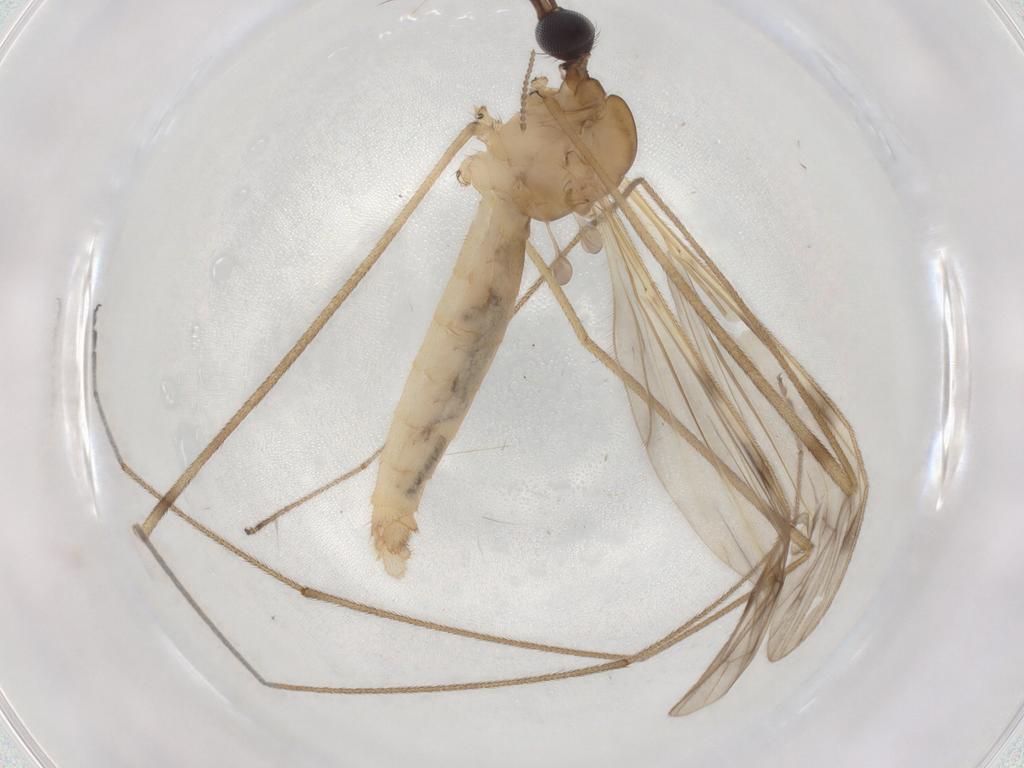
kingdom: Animalia
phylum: Arthropoda
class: Insecta
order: Diptera
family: Chironomidae
